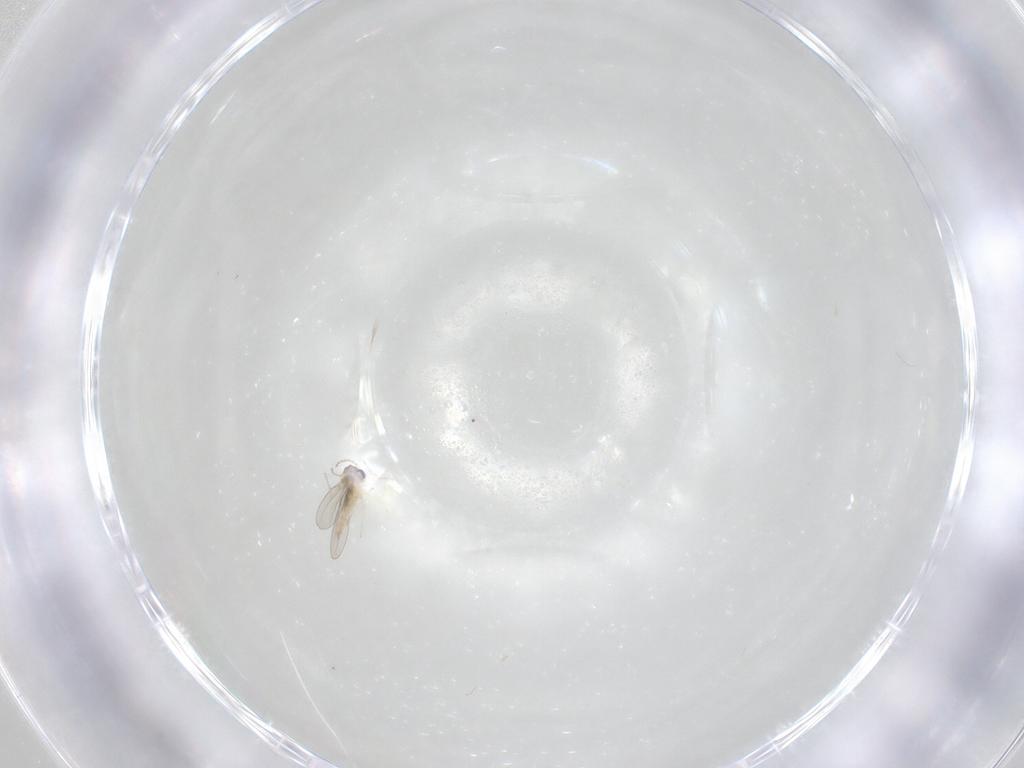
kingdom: Animalia
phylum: Arthropoda
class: Insecta
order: Diptera
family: Cecidomyiidae
